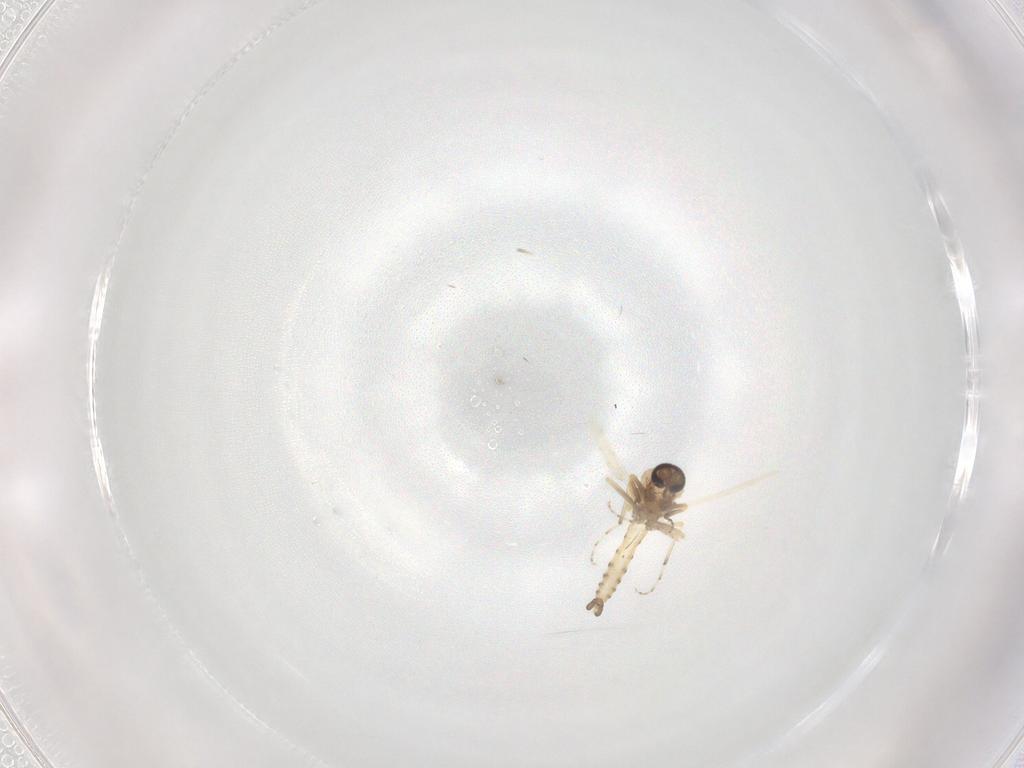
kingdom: Animalia
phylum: Arthropoda
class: Insecta
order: Diptera
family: Ceratopogonidae
